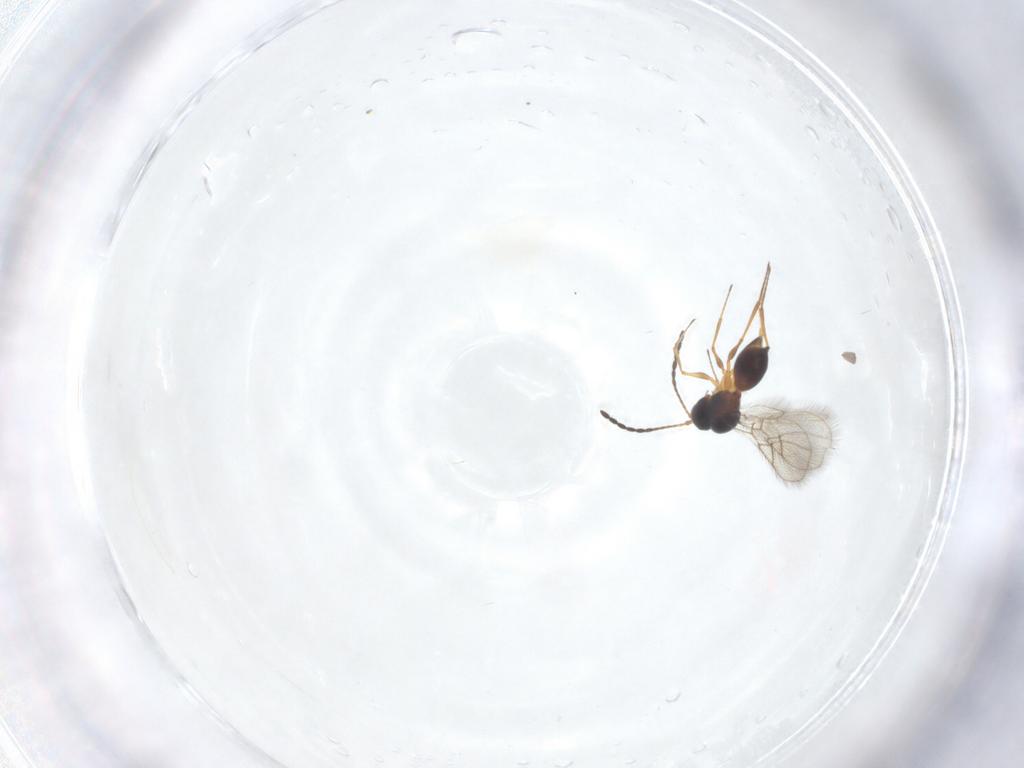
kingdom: Animalia
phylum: Arthropoda
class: Insecta
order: Hymenoptera
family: Figitidae
